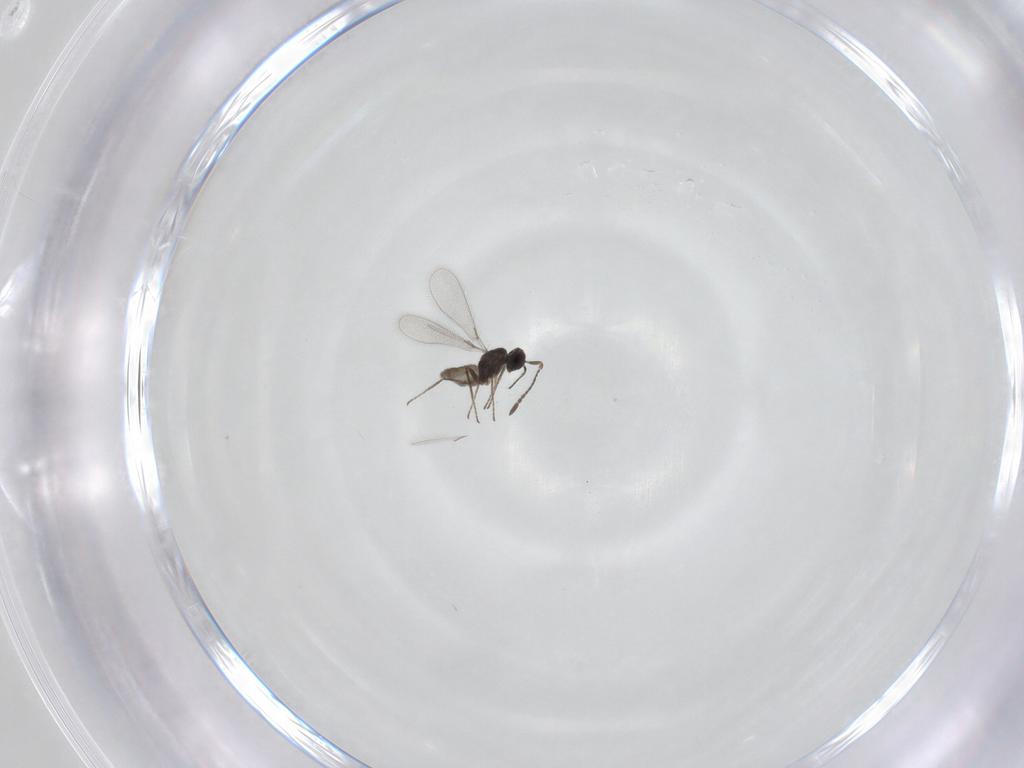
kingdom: Animalia
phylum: Arthropoda
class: Insecta
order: Hymenoptera
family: Mymaridae
